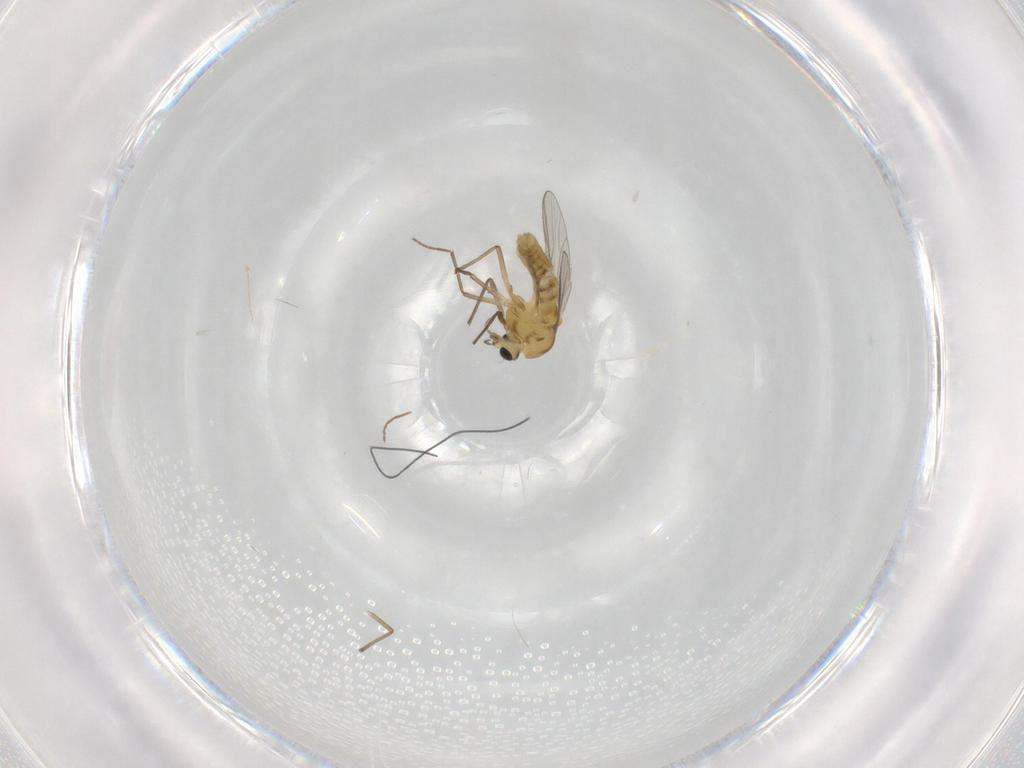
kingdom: Animalia
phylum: Arthropoda
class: Insecta
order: Diptera
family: Chironomidae
